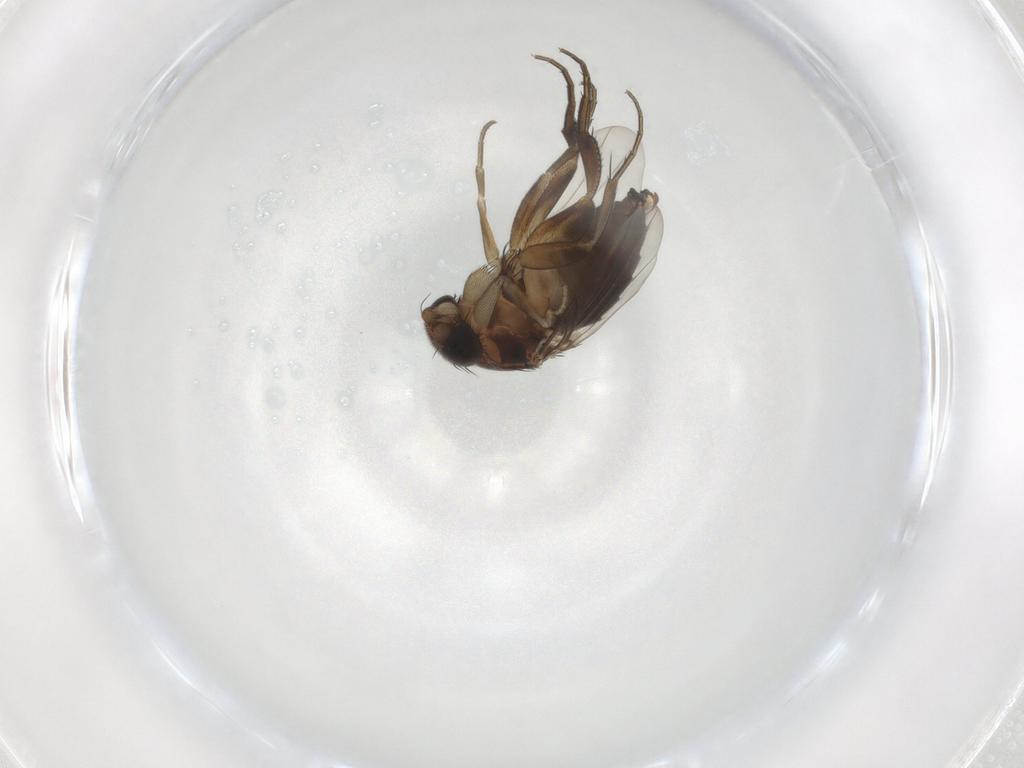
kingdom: Animalia
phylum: Arthropoda
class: Insecta
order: Diptera
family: Phoridae
